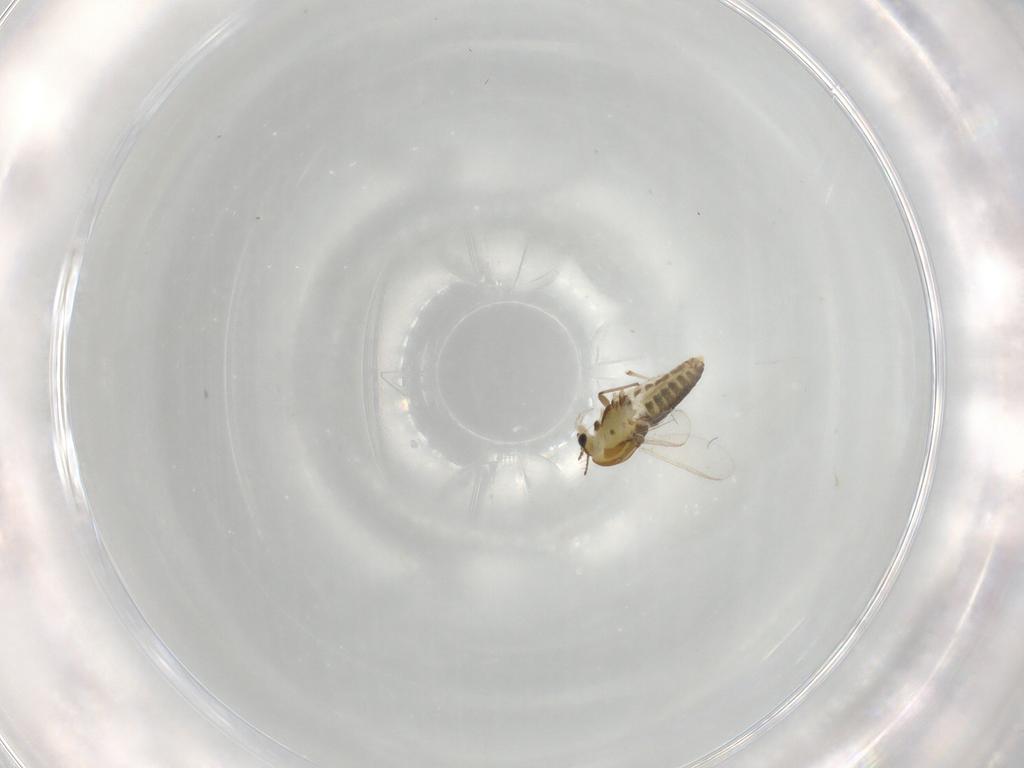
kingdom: Animalia
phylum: Arthropoda
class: Insecta
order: Diptera
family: Chironomidae
